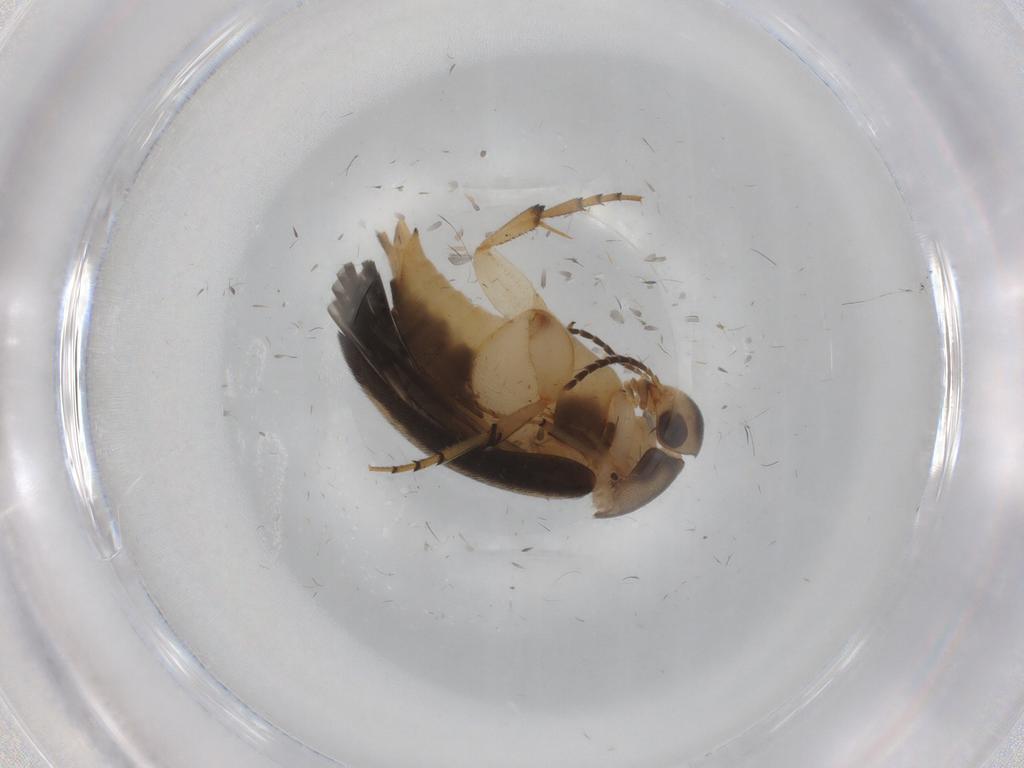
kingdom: Animalia
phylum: Arthropoda
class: Insecta
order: Coleoptera
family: Mordellidae
